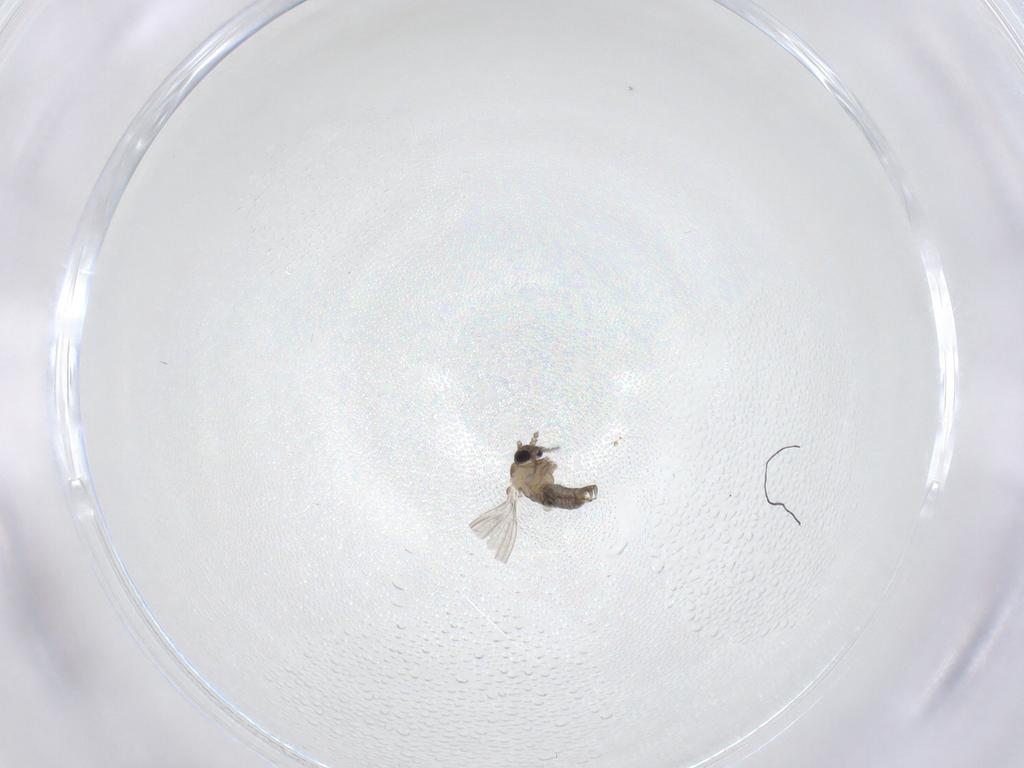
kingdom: Animalia
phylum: Arthropoda
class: Insecta
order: Diptera
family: Psychodidae
